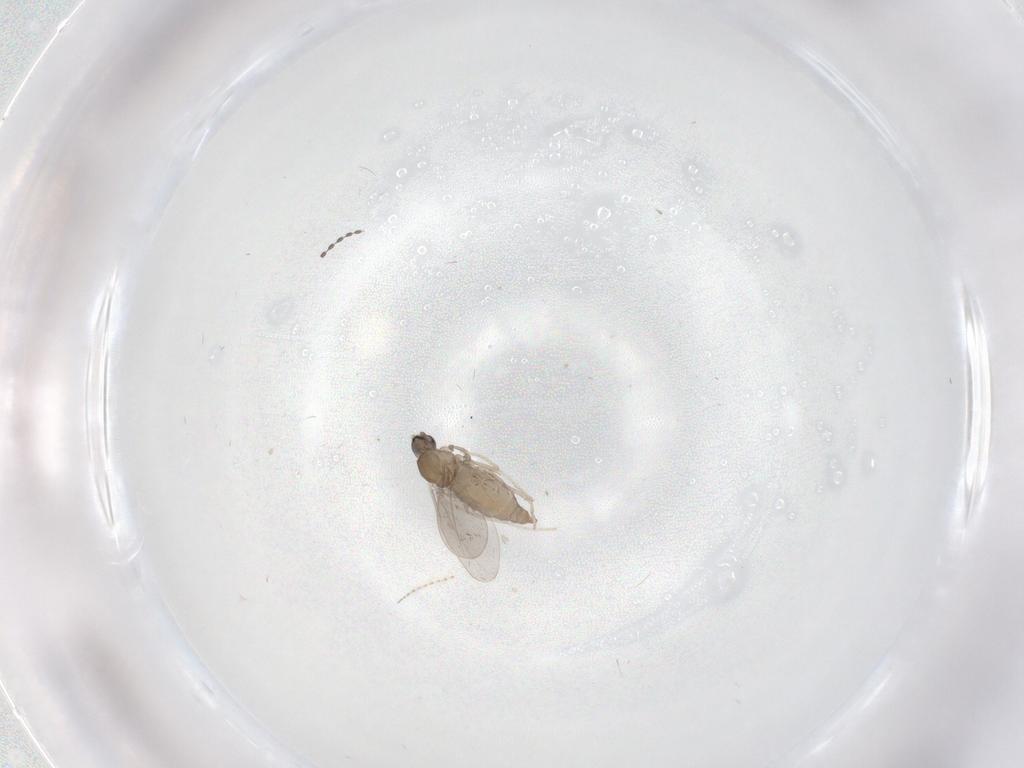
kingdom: Animalia
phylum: Arthropoda
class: Insecta
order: Diptera
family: Cecidomyiidae
